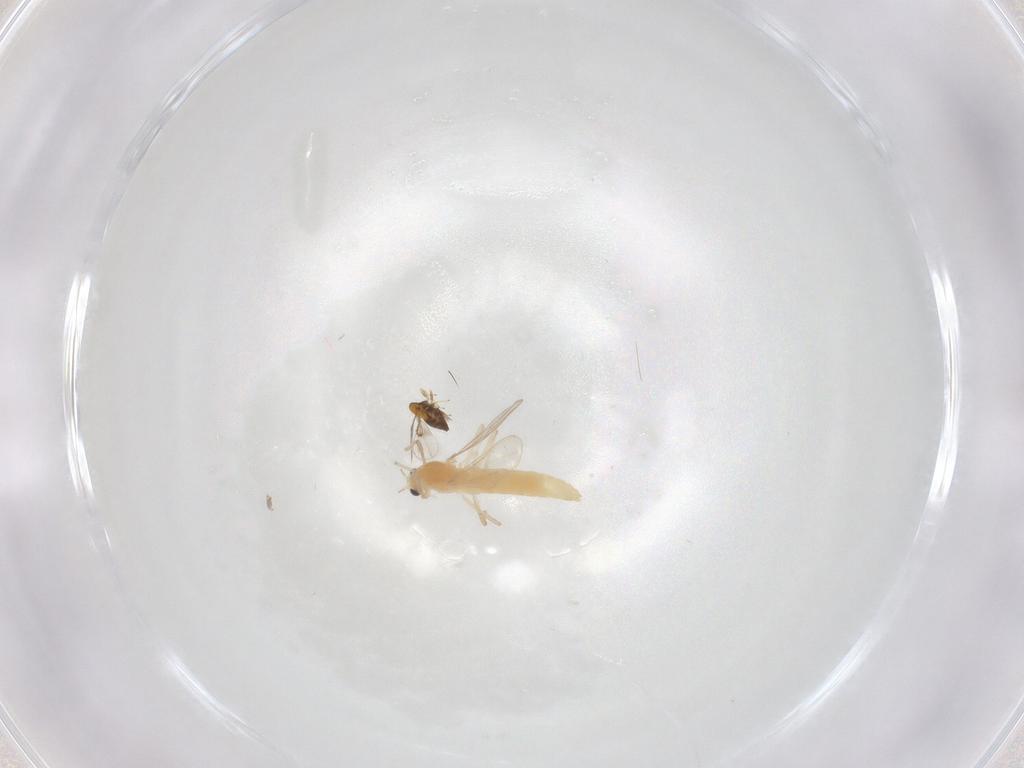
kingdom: Animalia
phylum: Arthropoda
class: Insecta
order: Diptera
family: Chironomidae
